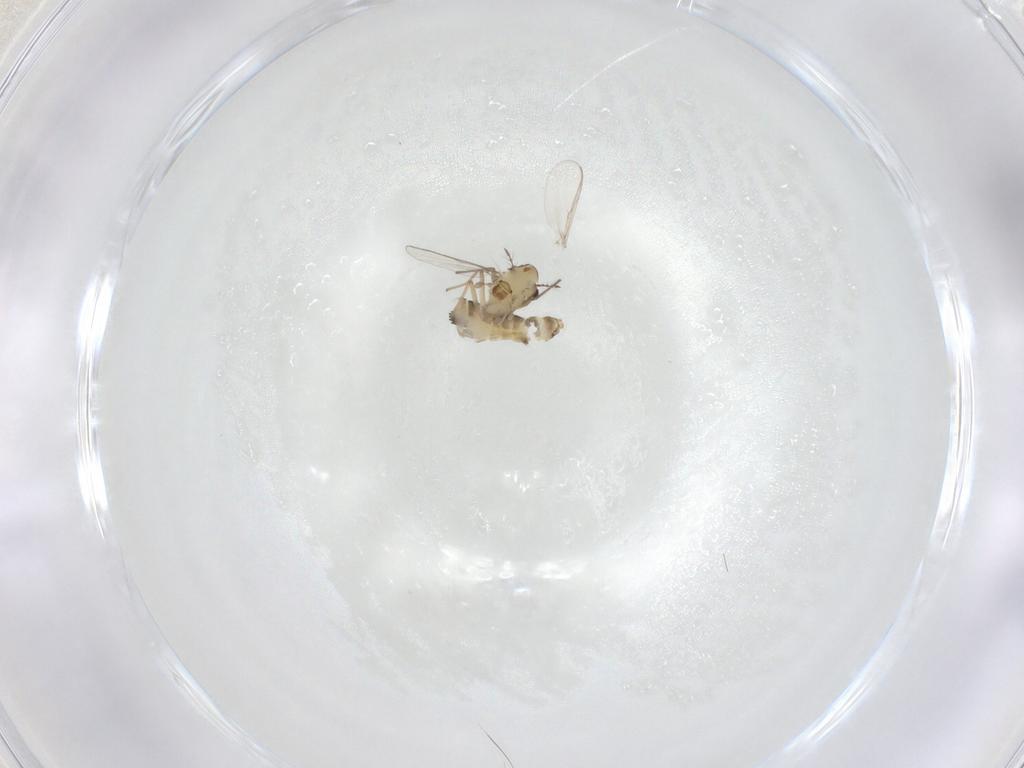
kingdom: Animalia
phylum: Arthropoda
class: Insecta
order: Diptera
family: Chironomidae
